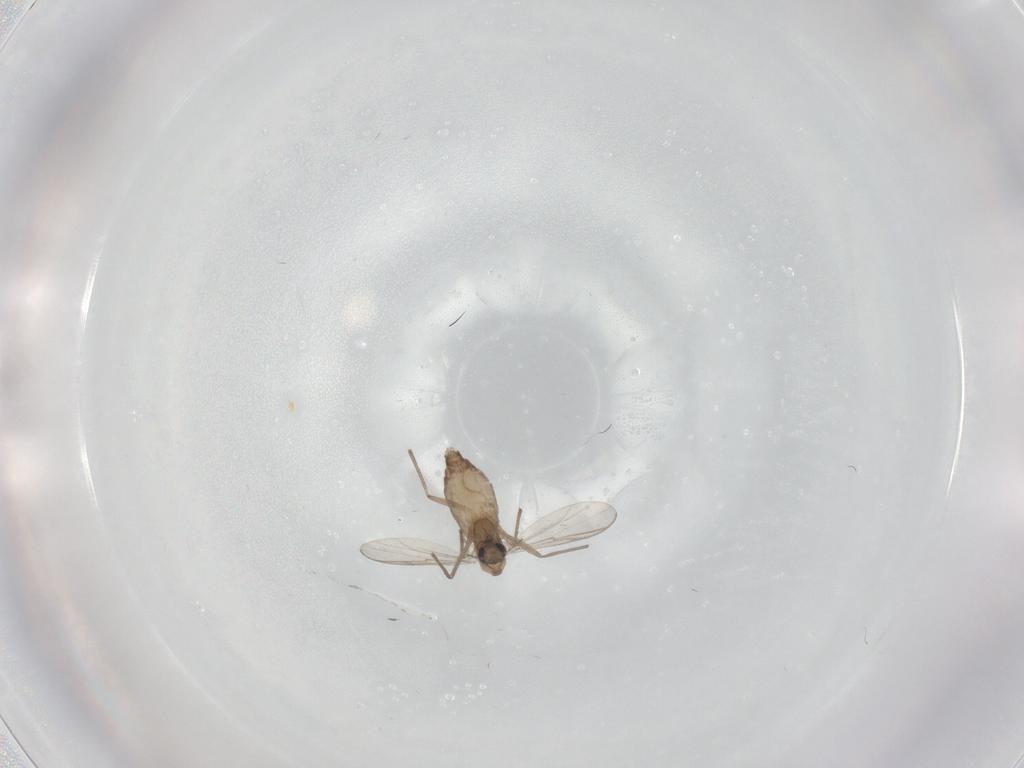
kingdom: Animalia
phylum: Arthropoda
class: Insecta
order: Diptera
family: Chironomidae
